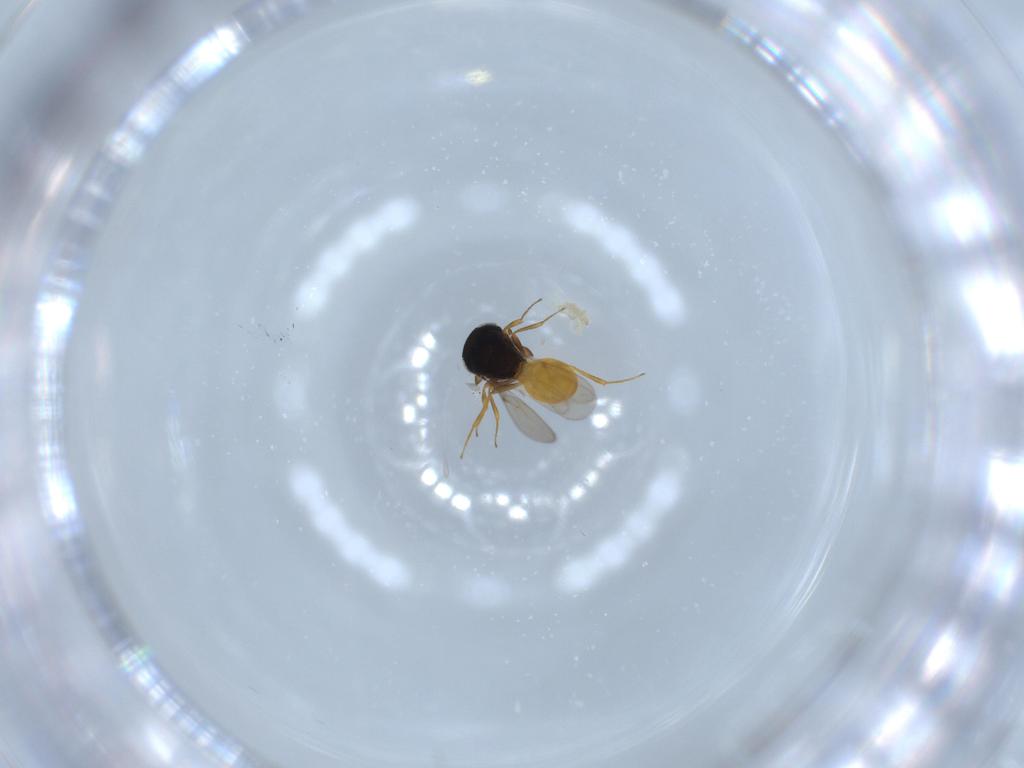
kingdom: Animalia
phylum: Arthropoda
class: Insecta
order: Hymenoptera
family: Scelionidae
